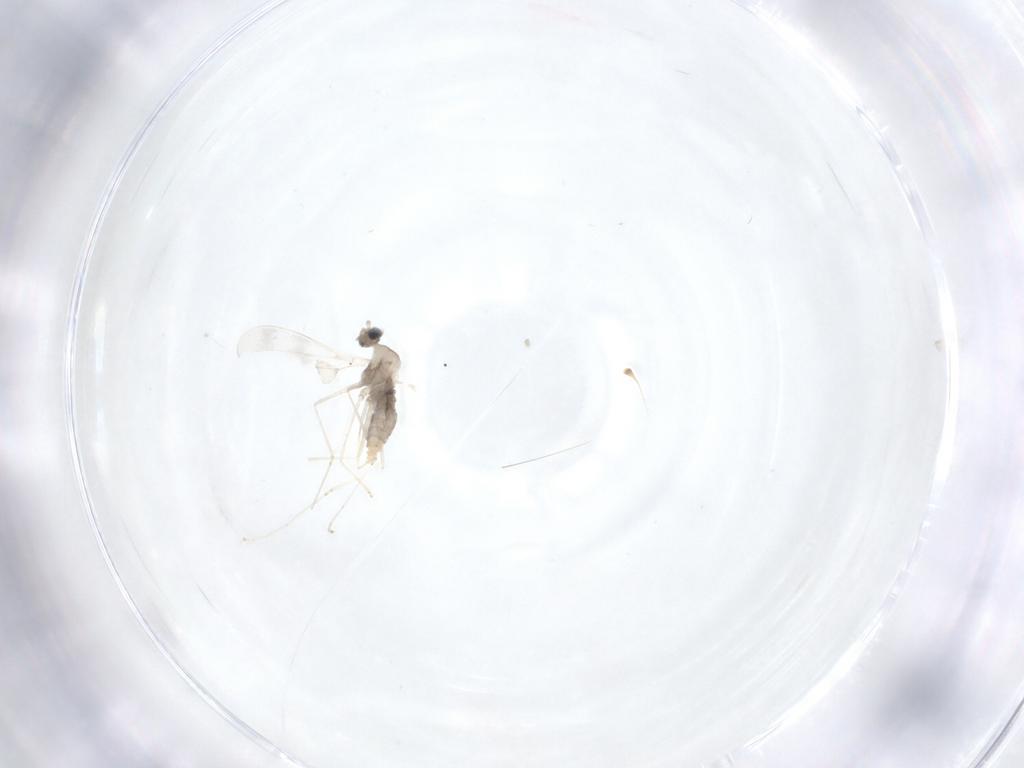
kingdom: Animalia
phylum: Arthropoda
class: Insecta
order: Diptera
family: Cecidomyiidae
